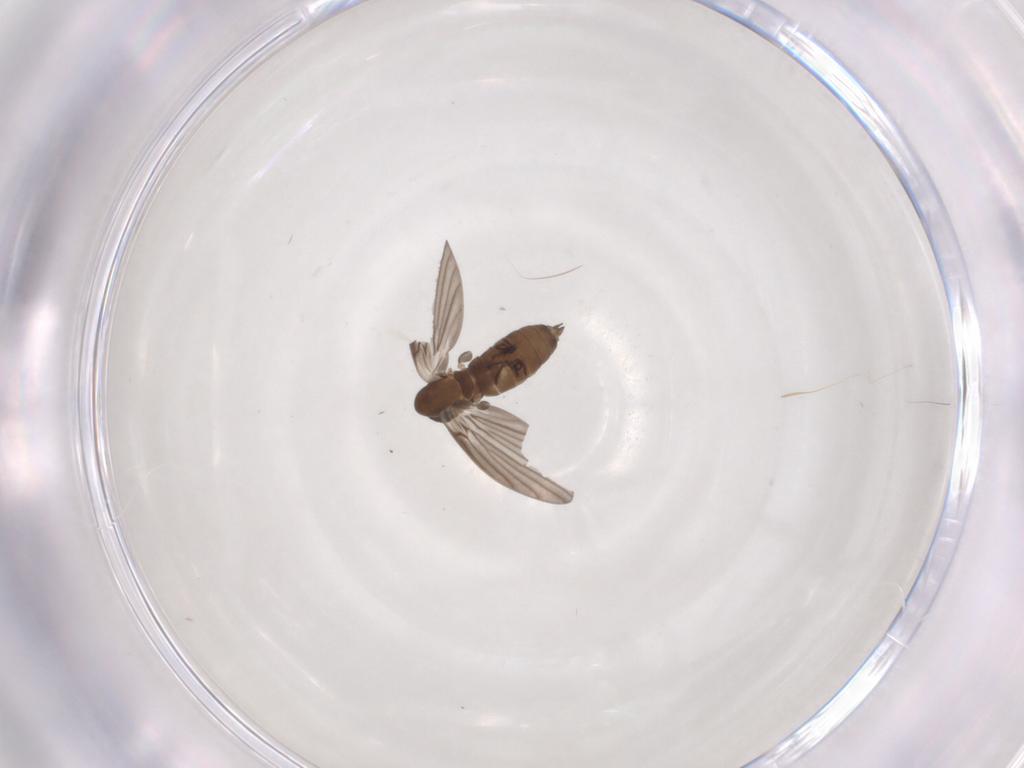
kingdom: Animalia
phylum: Arthropoda
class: Insecta
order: Diptera
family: Psychodidae
